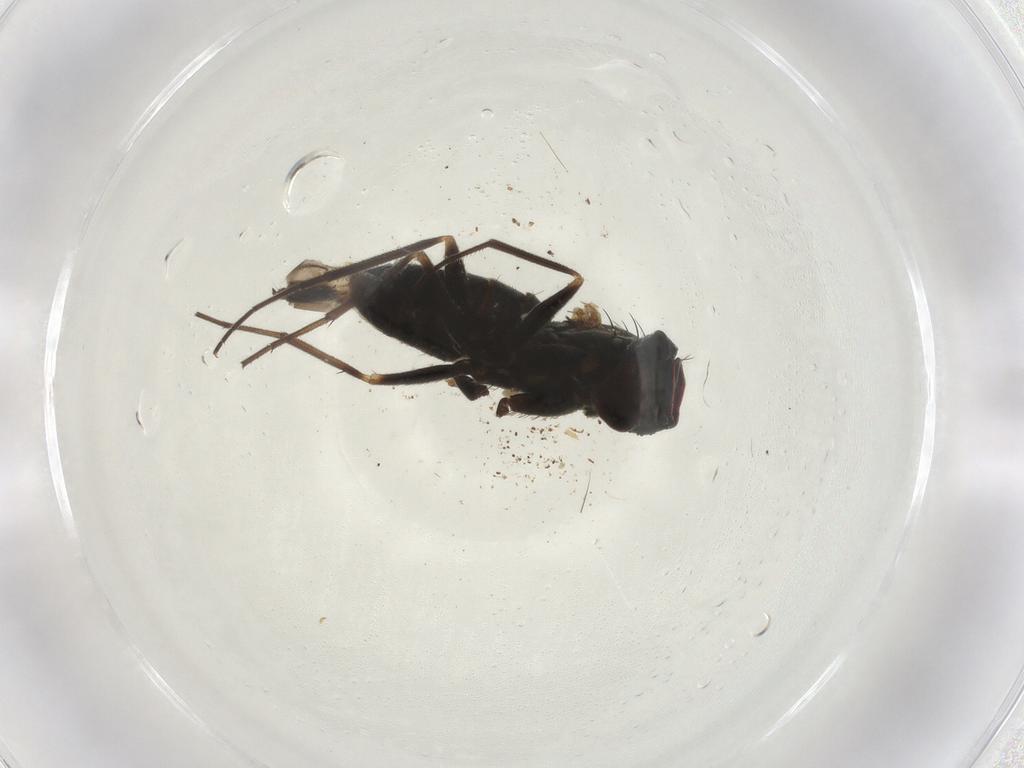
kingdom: Animalia
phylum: Arthropoda
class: Insecta
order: Diptera
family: Dolichopodidae
